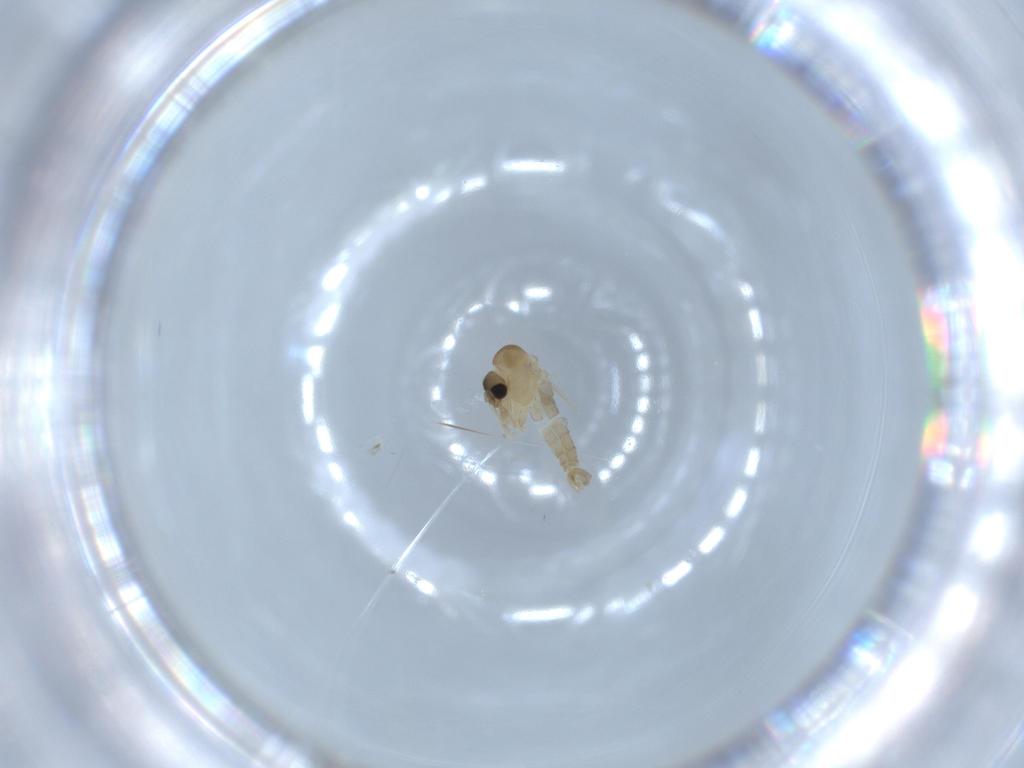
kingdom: Animalia
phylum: Arthropoda
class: Insecta
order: Diptera
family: Psychodidae
